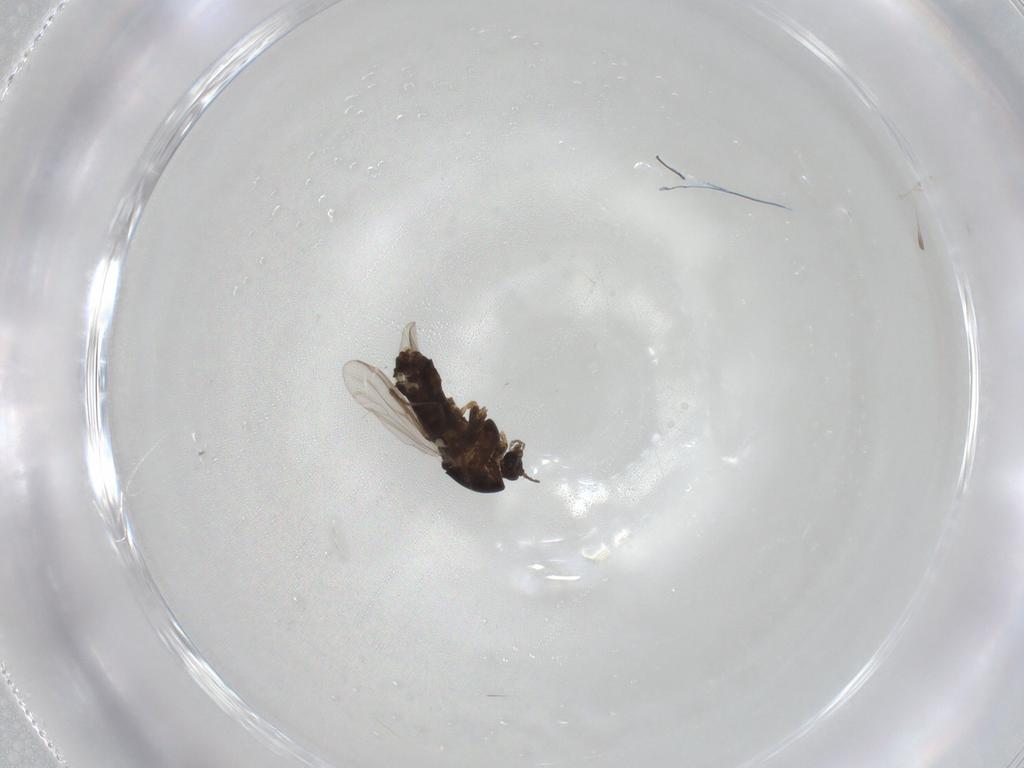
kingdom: Animalia
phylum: Arthropoda
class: Insecta
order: Diptera
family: Chironomidae
